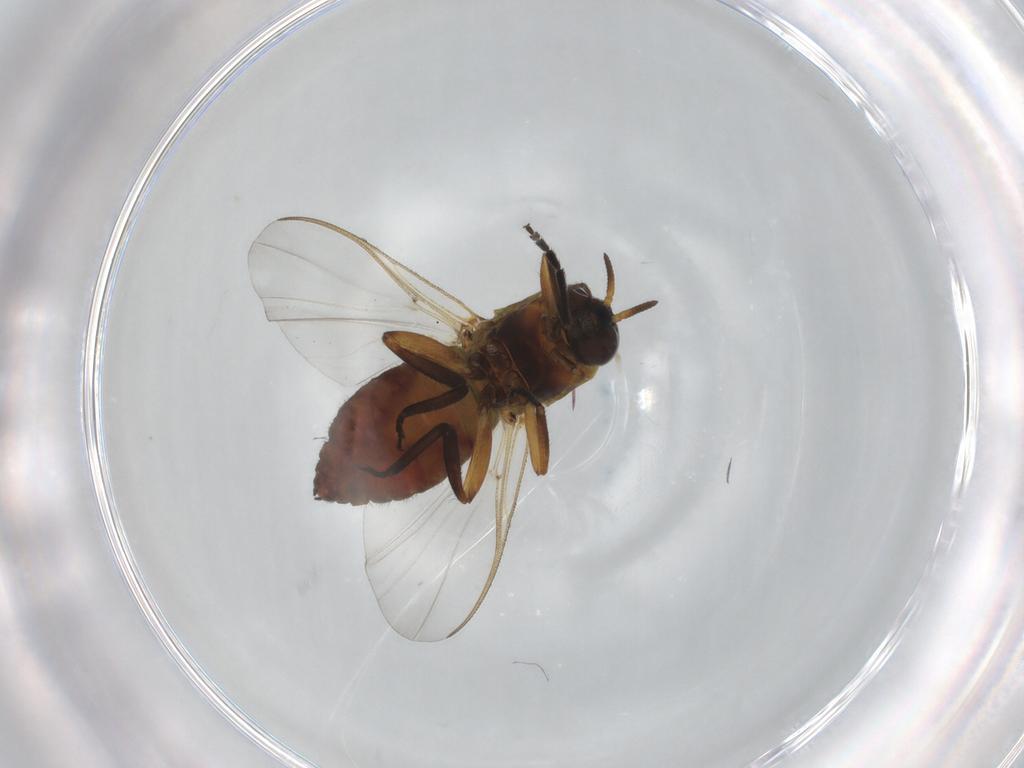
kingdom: Animalia
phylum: Arthropoda
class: Insecta
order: Diptera
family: Simuliidae
